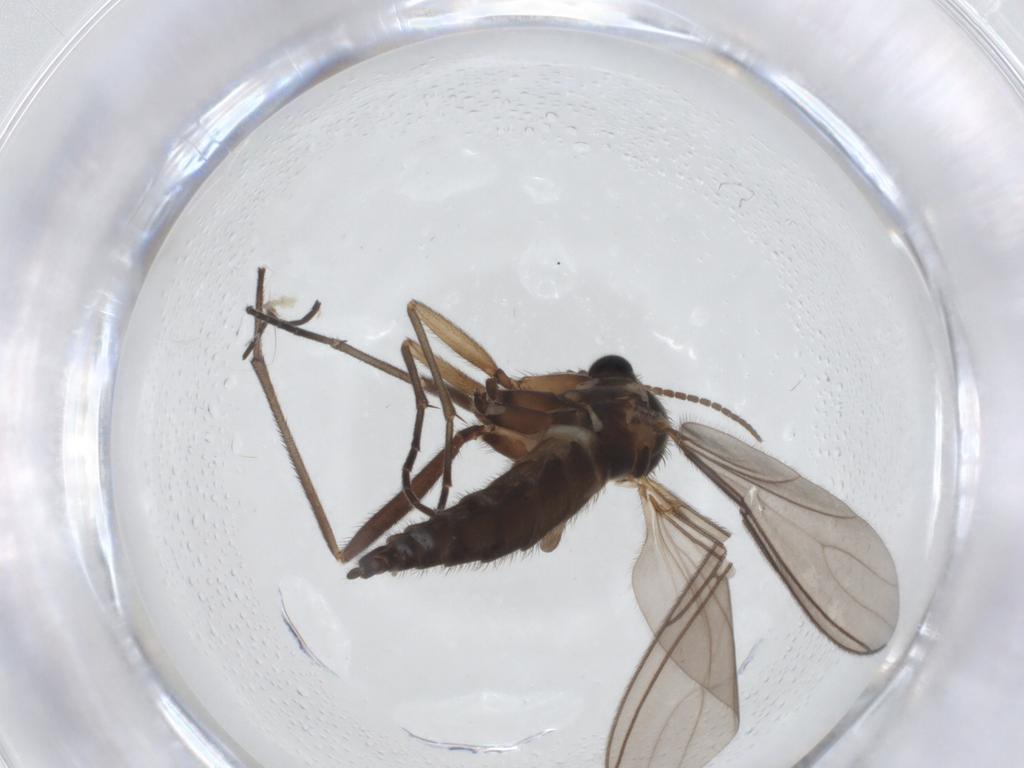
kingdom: Animalia
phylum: Arthropoda
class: Insecta
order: Diptera
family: Sciaridae
